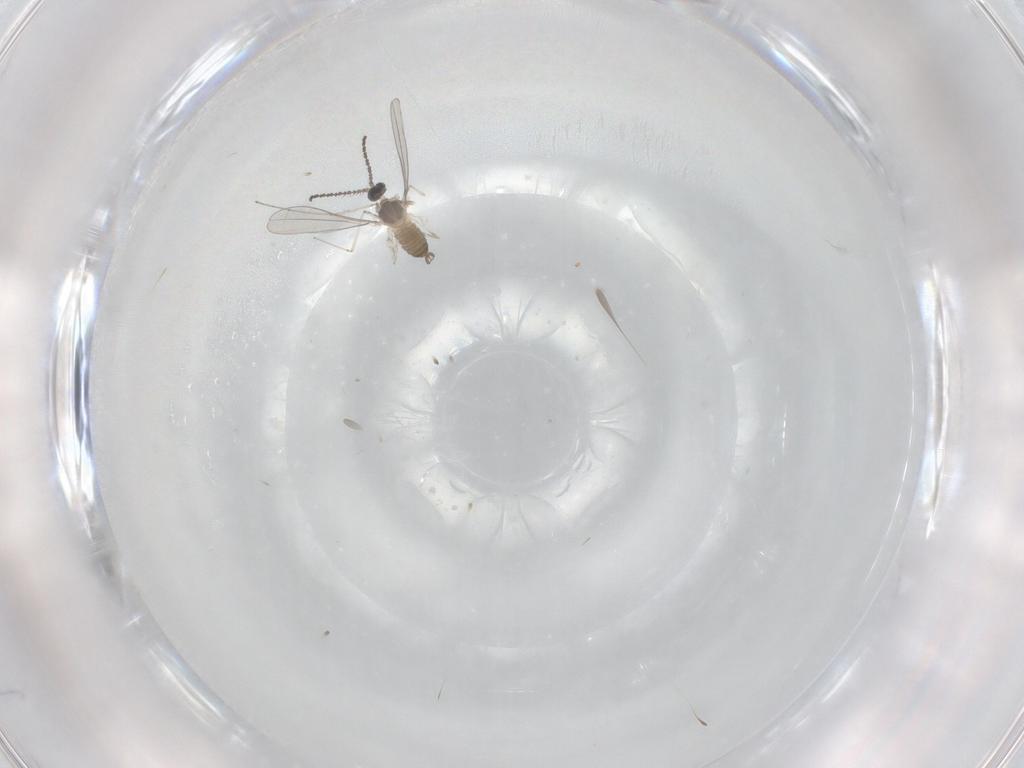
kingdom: Animalia
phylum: Arthropoda
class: Insecta
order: Diptera
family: Cecidomyiidae
